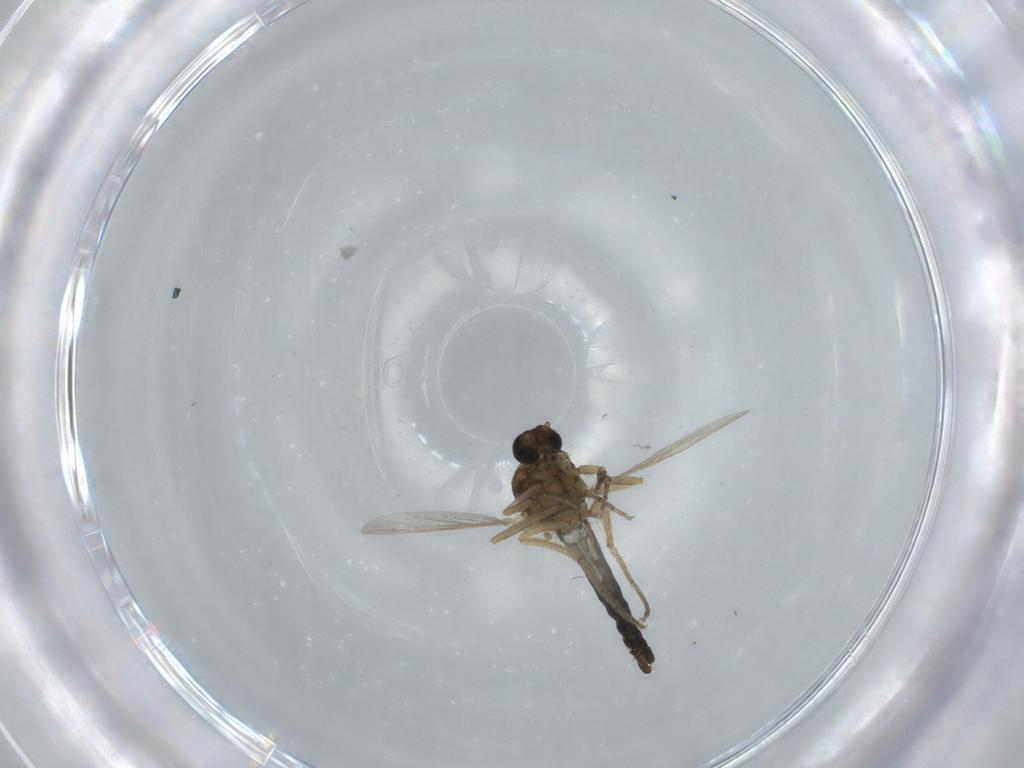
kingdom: Animalia
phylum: Arthropoda
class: Insecta
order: Diptera
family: Ceratopogonidae
